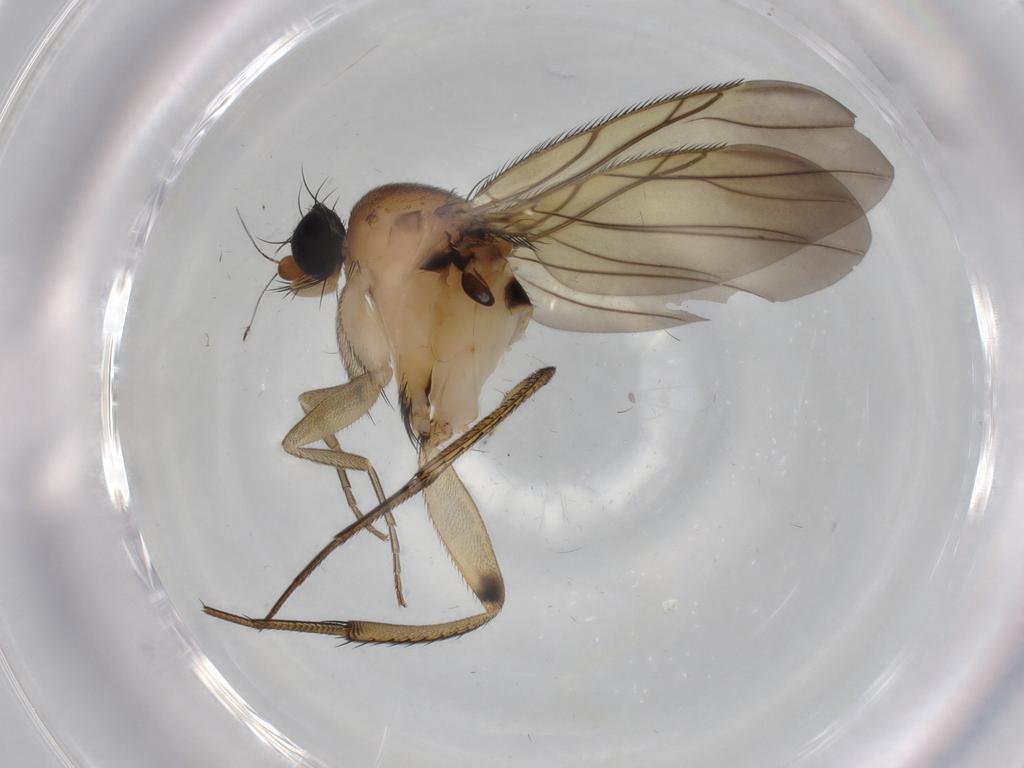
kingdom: Animalia
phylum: Arthropoda
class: Insecta
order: Diptera
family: Phoridae
